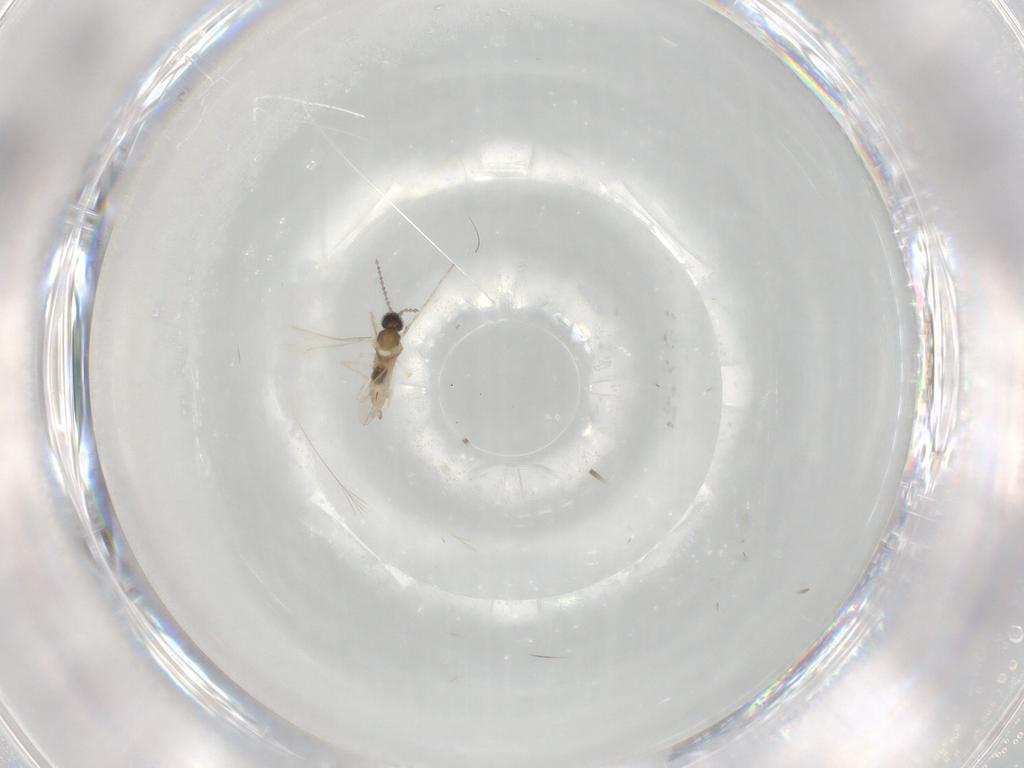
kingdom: Animalia
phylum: Arthropoda
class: Insecta
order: Diptera
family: Cecidomyiidae
